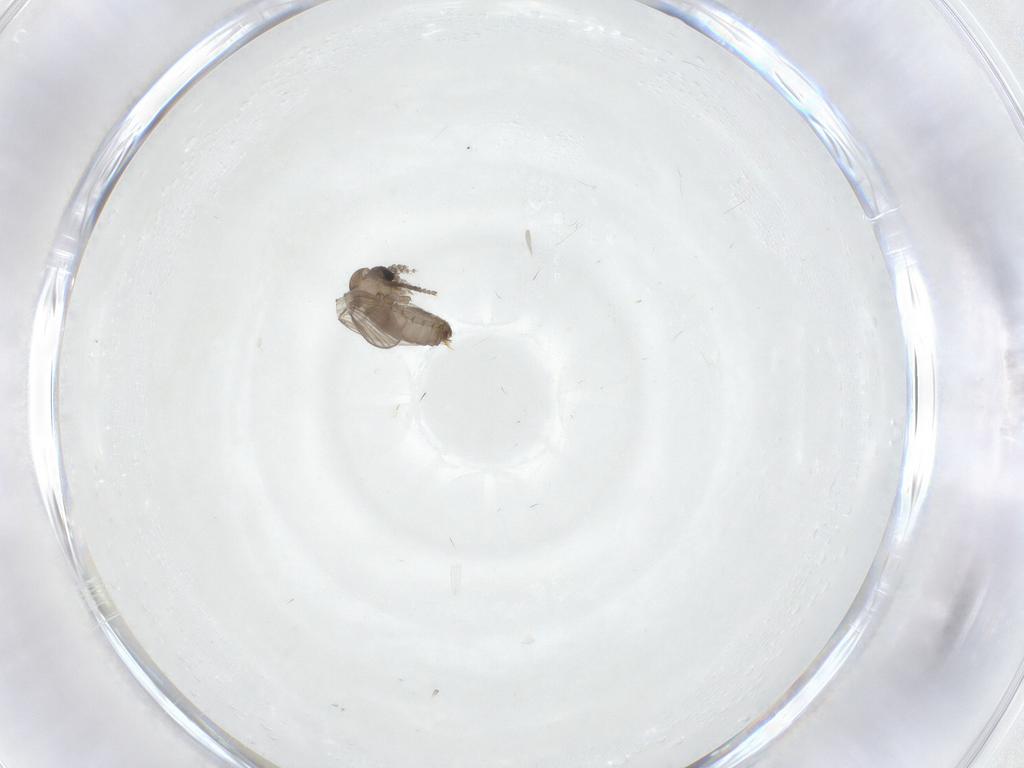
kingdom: Animalia
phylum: Arthropoda
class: Insecta
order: Diptera
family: Psychodidae
